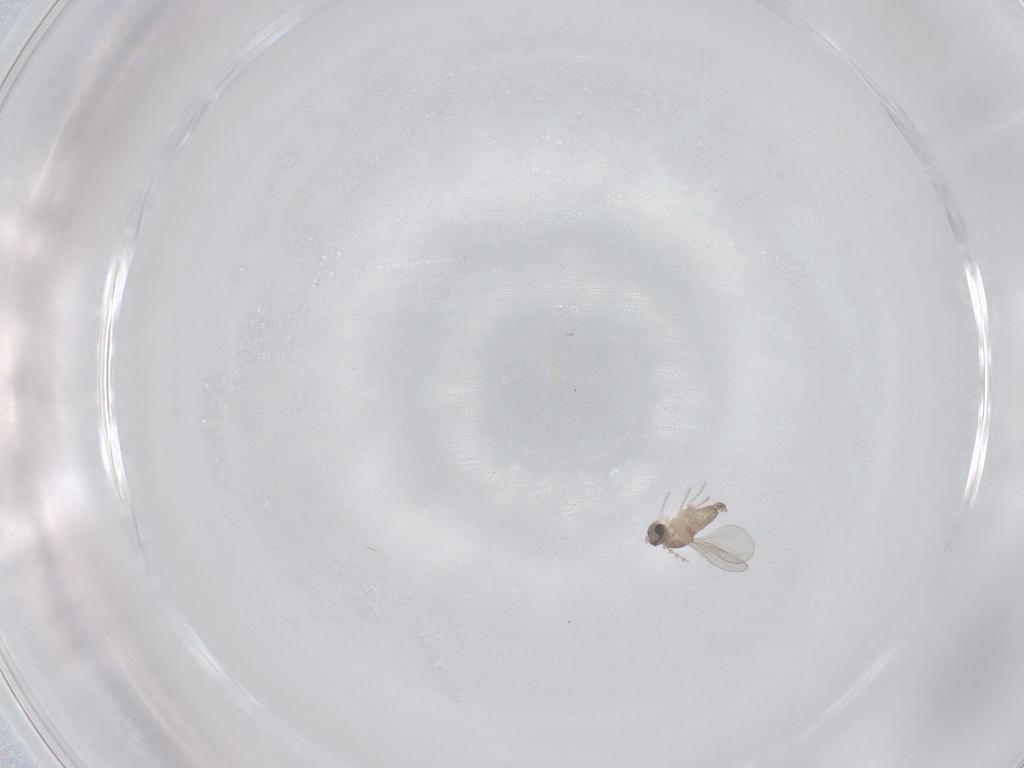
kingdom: Animalia
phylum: Arthropoda
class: Insecta
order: Diptera
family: Cecidomyiidae
